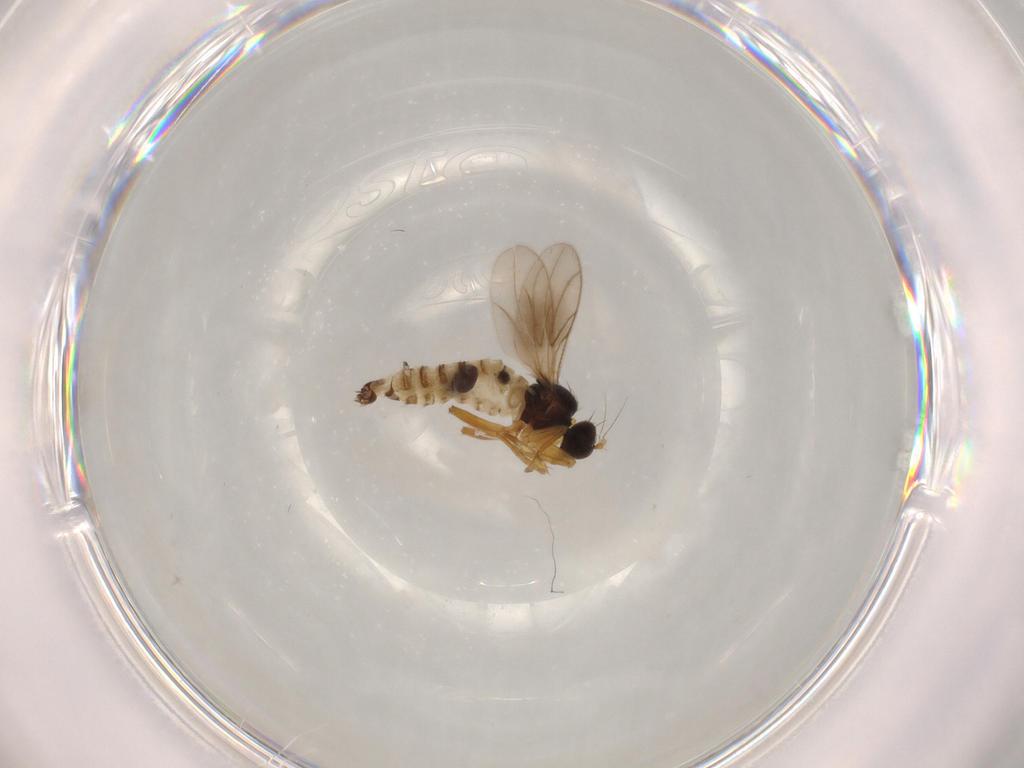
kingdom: Animalia
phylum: Arthropoda
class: Insecta
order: Diptera
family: Hybotidae
